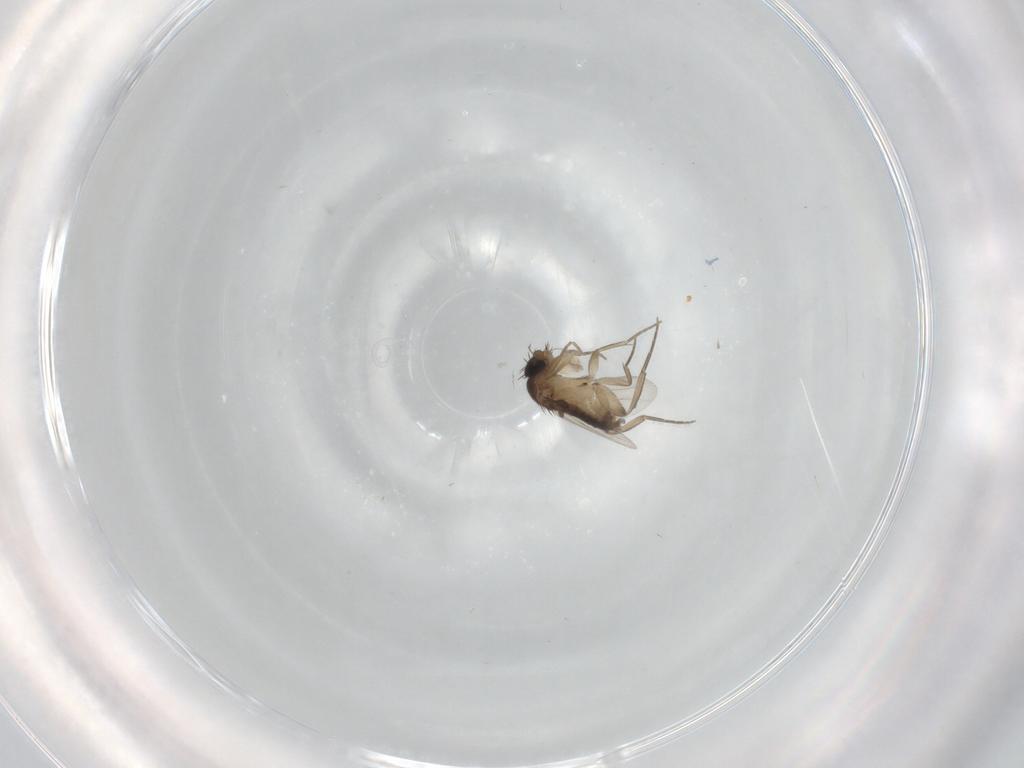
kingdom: Animalia
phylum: Arthropoda
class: Insecta
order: Diptera
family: Phoridae
